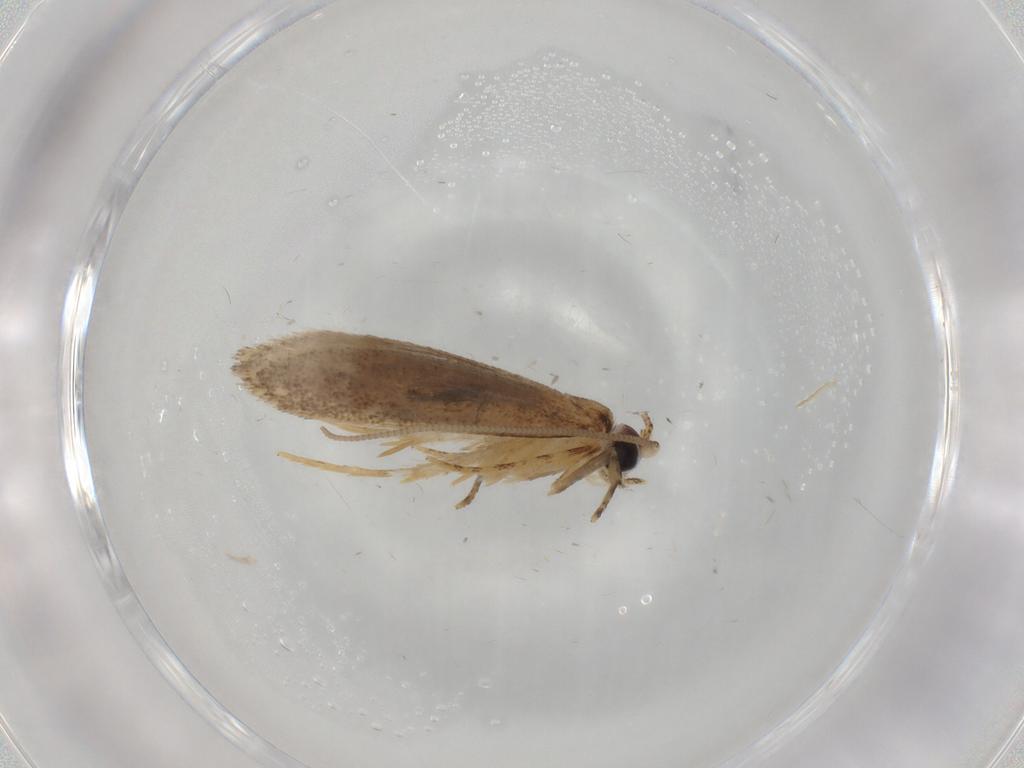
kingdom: Animalia
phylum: Arthropoda
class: Insecta
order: Lepidoptera
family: Nepticulidae
